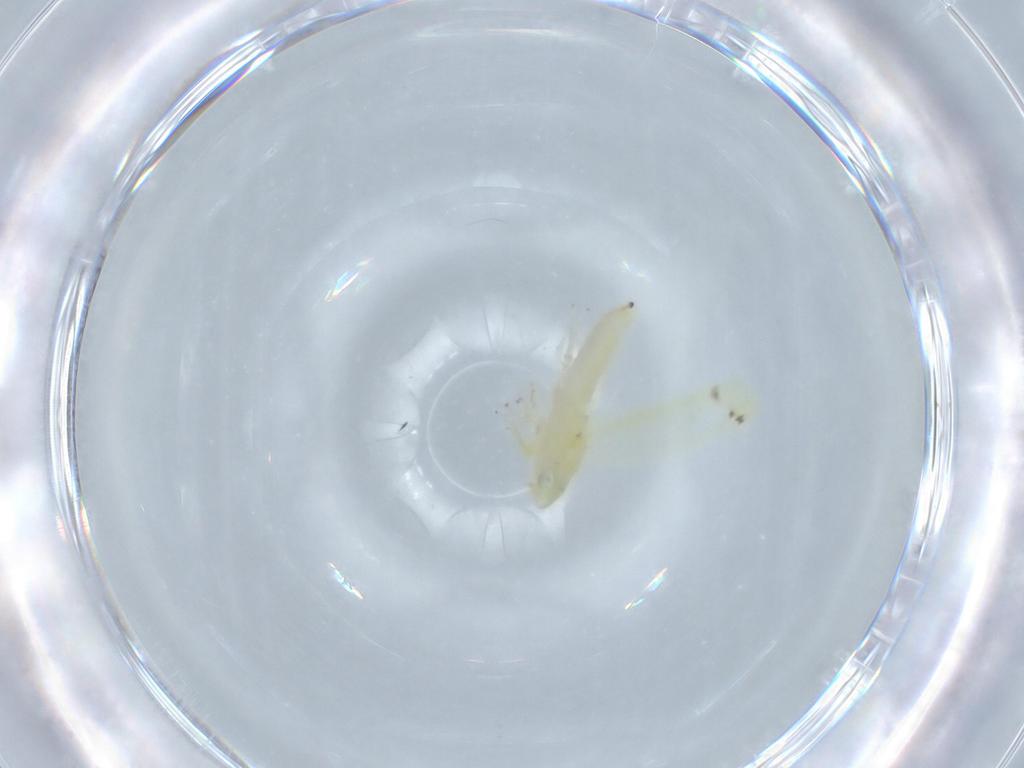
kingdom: Animalia
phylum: Arthropoda
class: Insecta
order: Hemiptera
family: Cicadellidae
